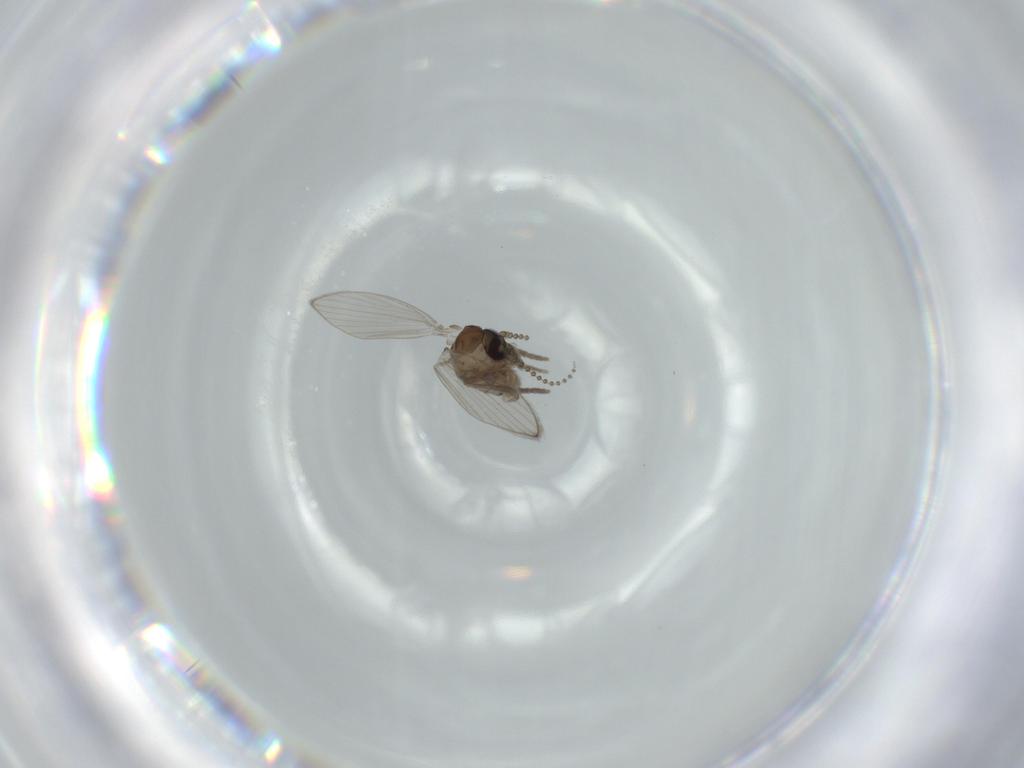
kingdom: Animalia
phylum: Arthropoda
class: Insecta
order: Diptera
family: Psychodidae
